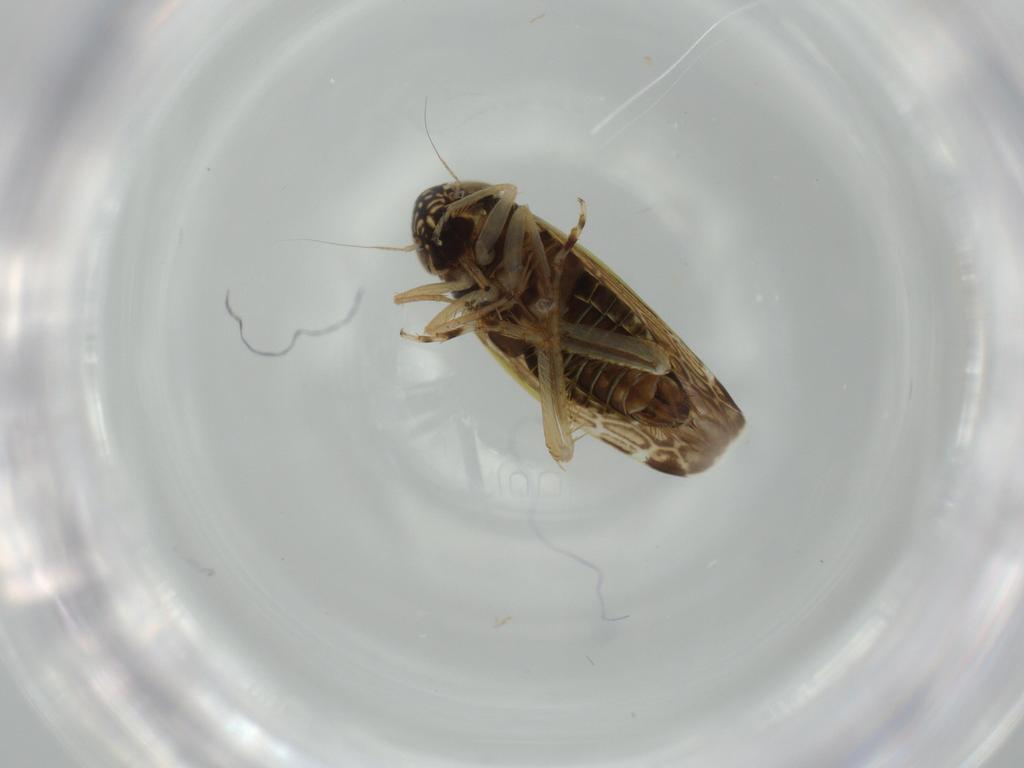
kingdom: Animalia
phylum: Arthropoda
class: Insecta
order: Hemiptera
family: Cicadellidae
